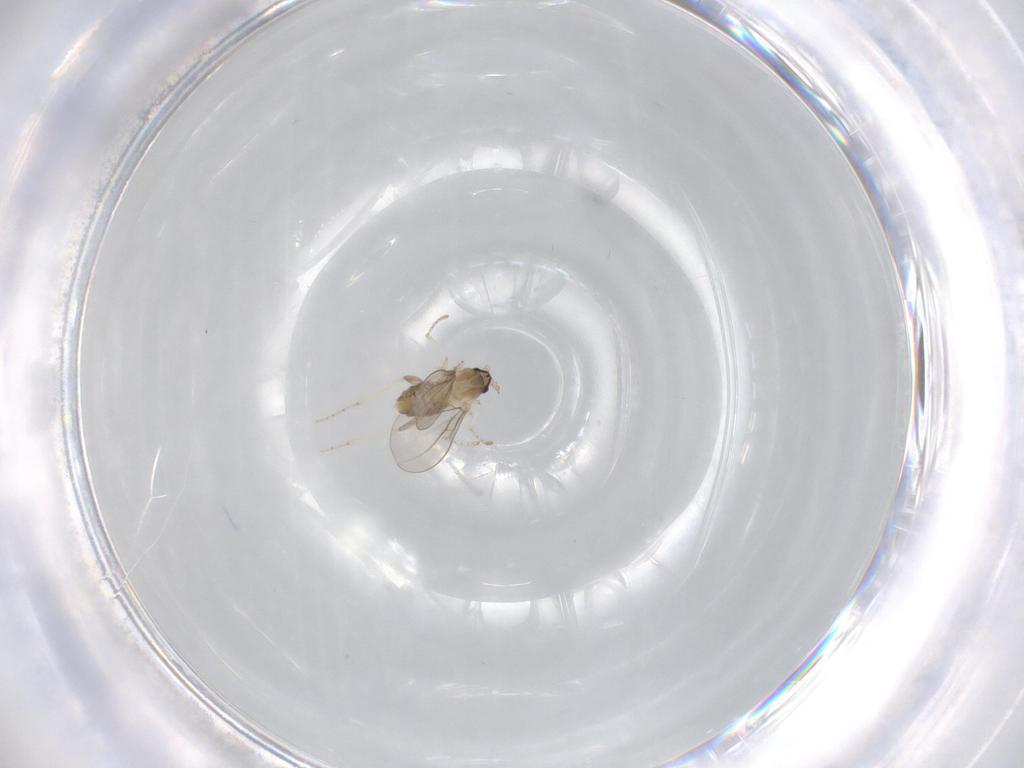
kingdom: Animalia
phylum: Arthropoda
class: Insecta
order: Diptera
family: Cecidomyiidae
